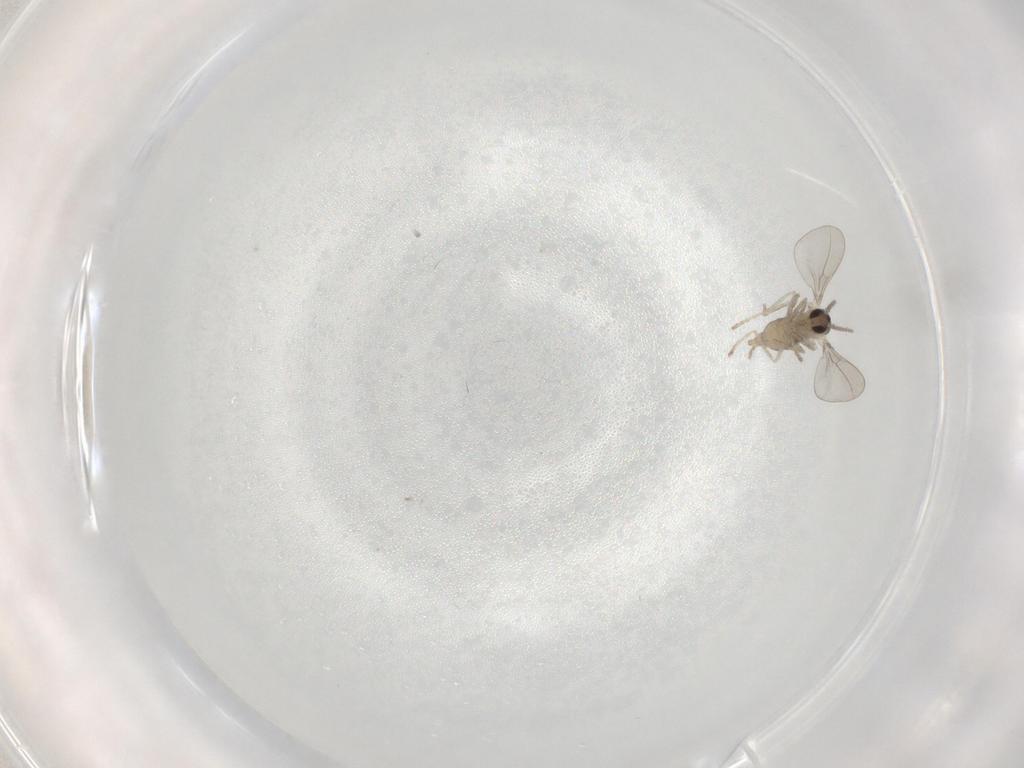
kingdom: Animalia
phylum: Arthropoda
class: Insecta
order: Diptera
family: Cecidomyiidae
